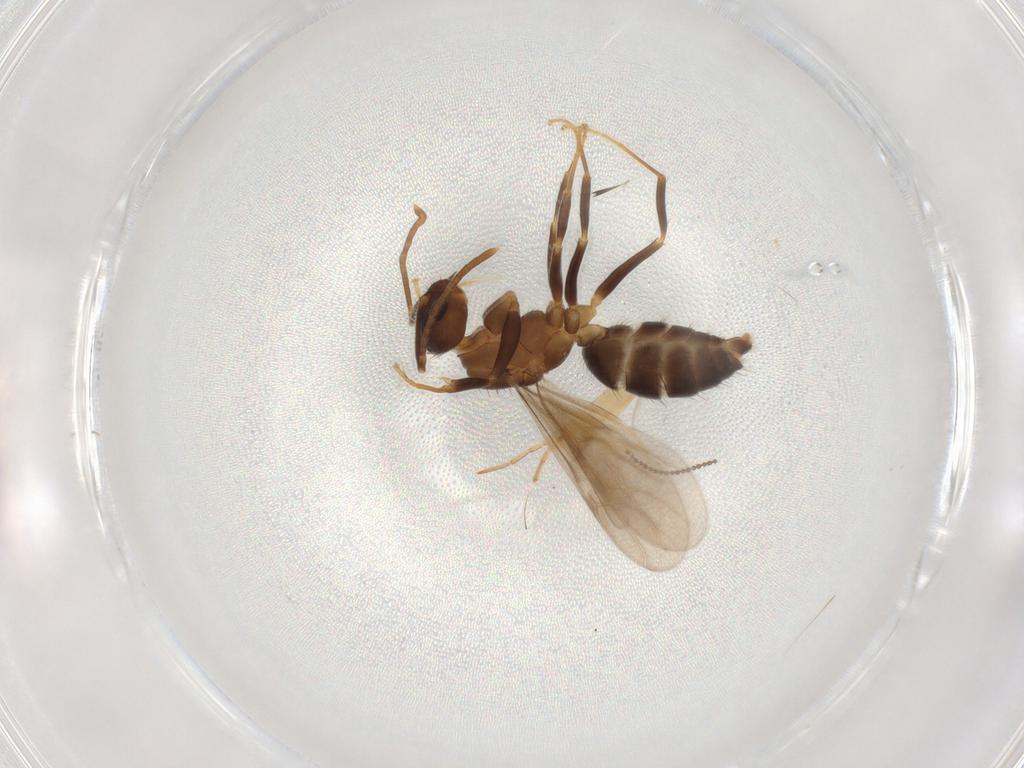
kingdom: Animalia
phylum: Arthropoda
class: Insecta
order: Hymenoptera
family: Formicidae
